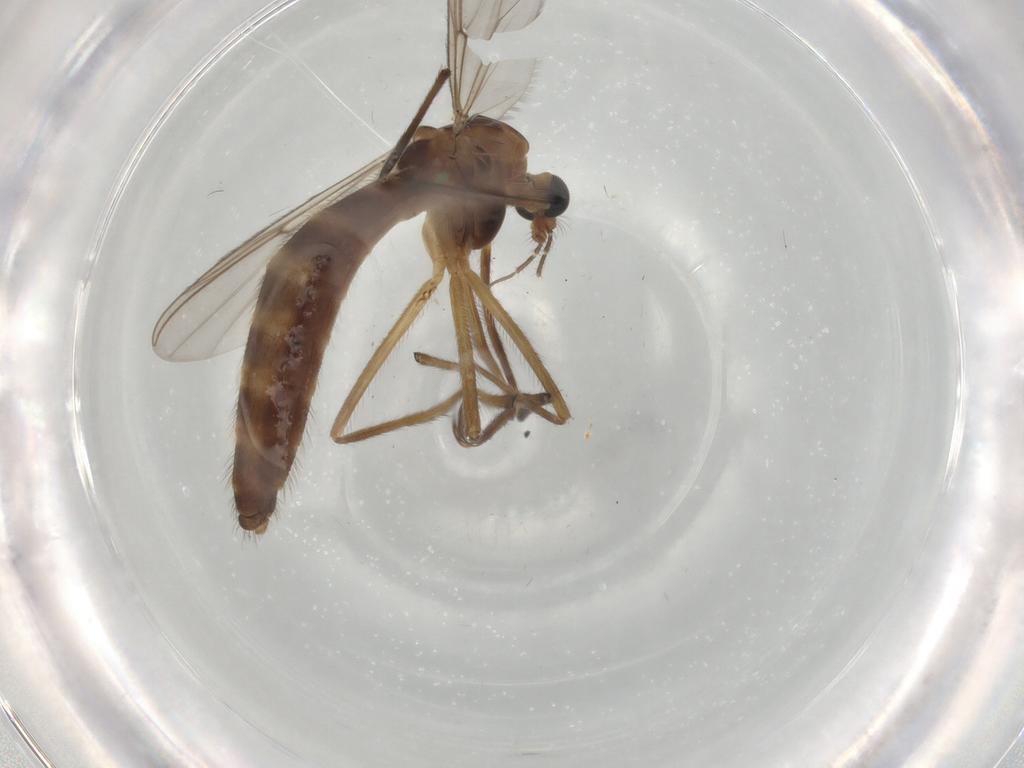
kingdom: Animalia
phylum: Arthropoda
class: Insecta
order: Diptera
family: Chironomidae
